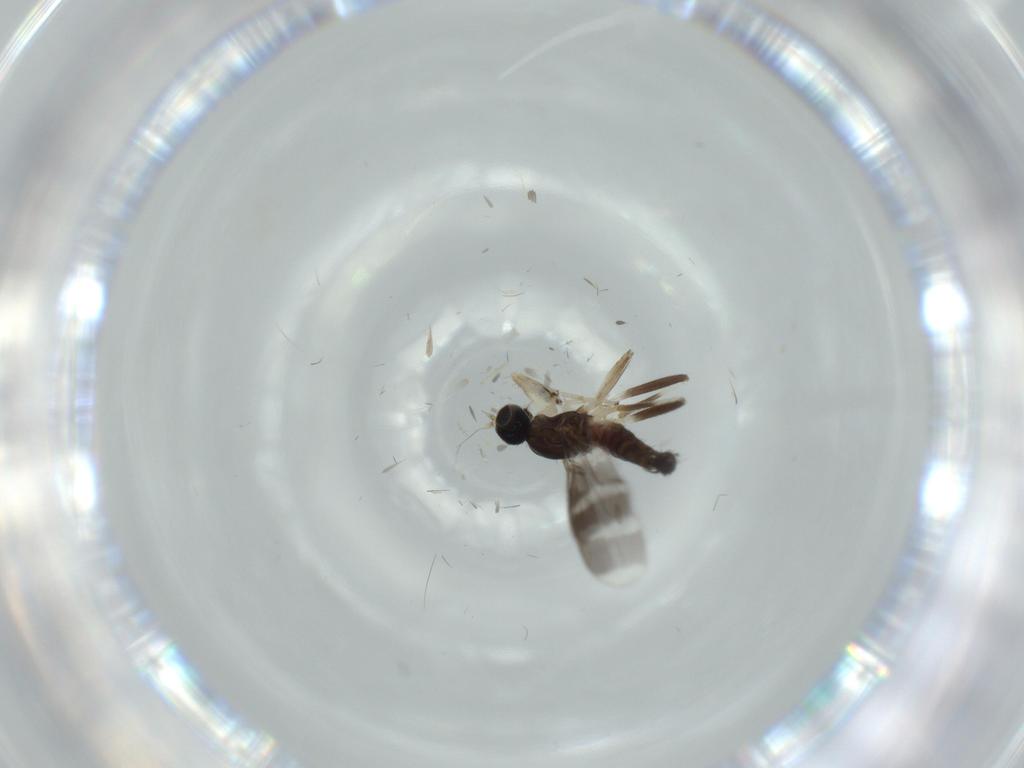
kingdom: Animalia
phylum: Arthropoda
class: Insecta
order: Diptera
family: Hybotidae
